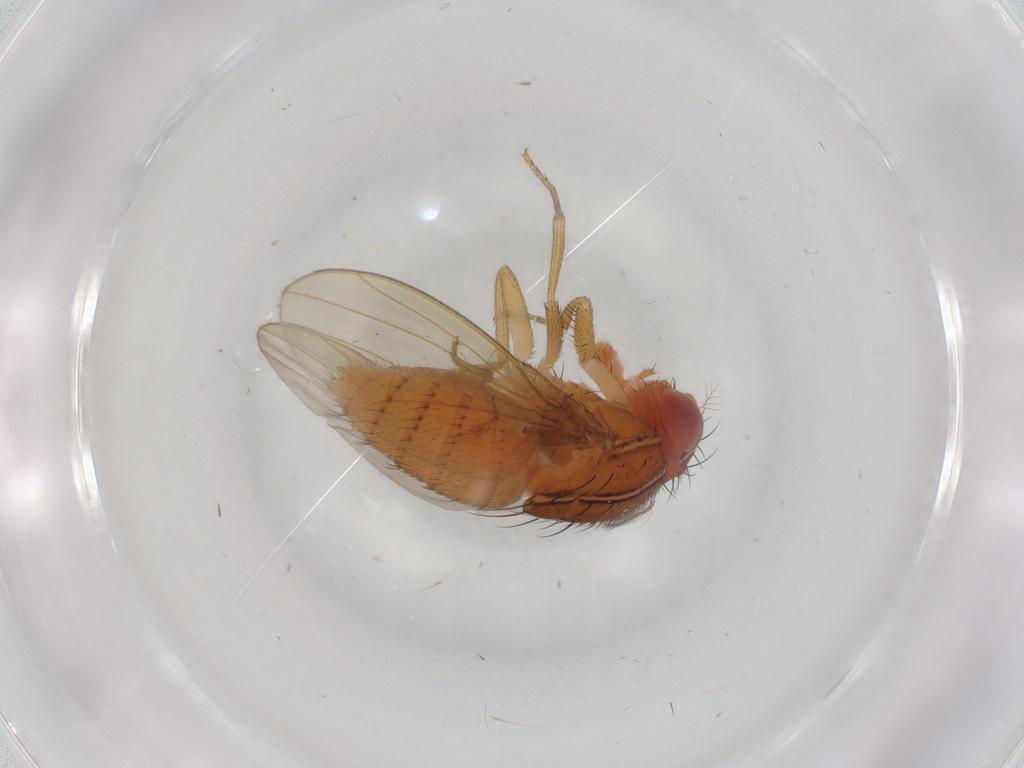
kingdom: Animalia
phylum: Arthropoda
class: Insecta
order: Diptera
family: Drosophilidae
